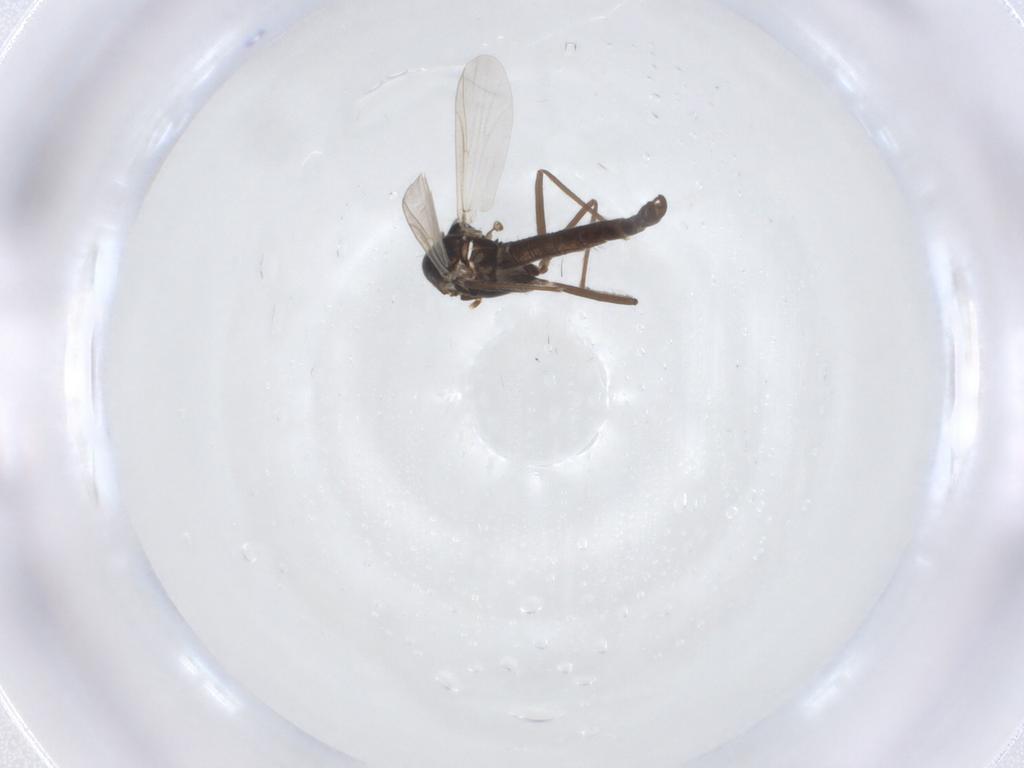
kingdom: Animalia
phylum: Arthropoda
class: Insecta
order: Diptera
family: Chironomidae
